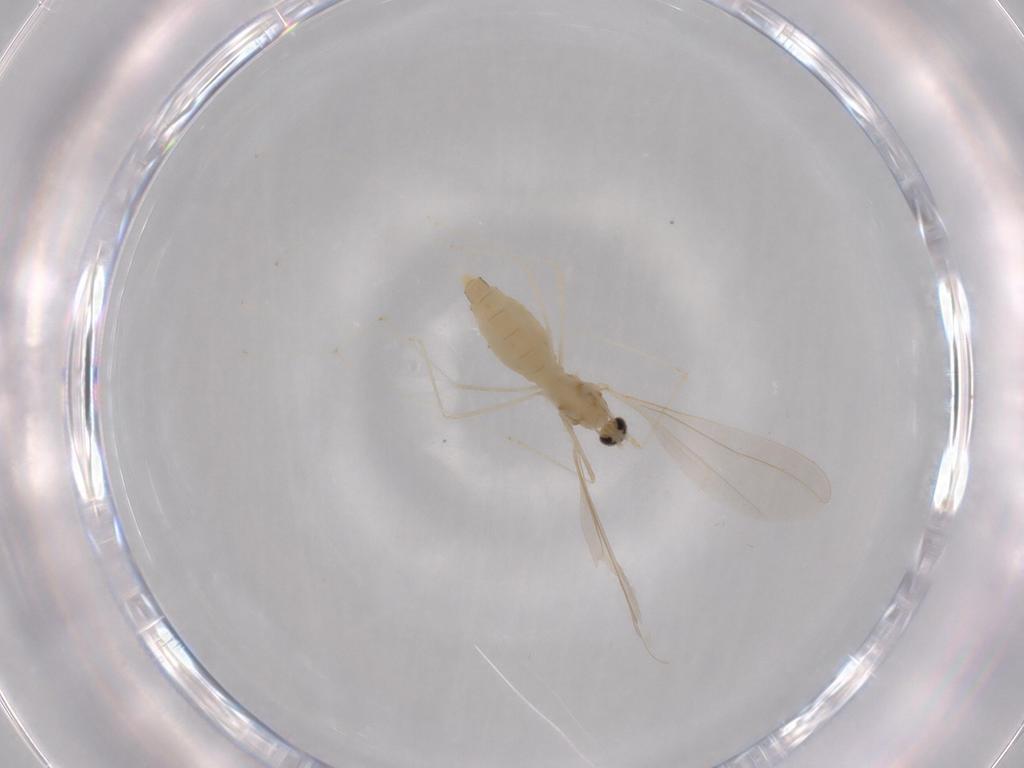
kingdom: Animalia
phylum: Arthropoda
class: Insecta
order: Diptera
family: Cecidomyiidae
